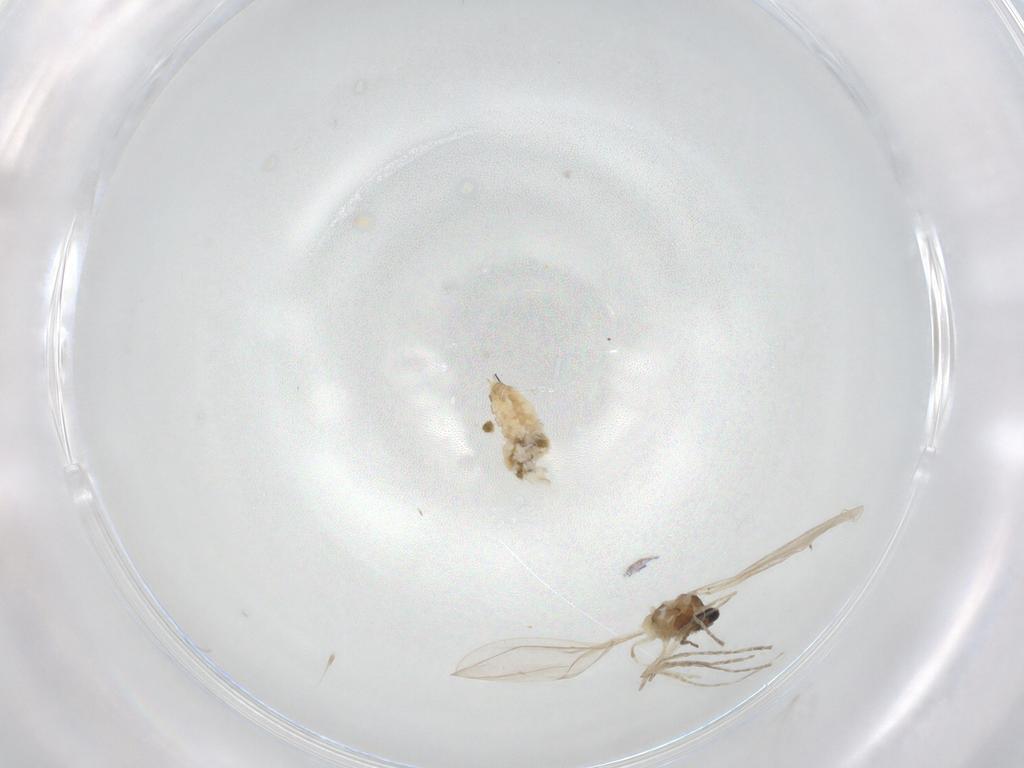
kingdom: Animalia
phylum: Arthropoda
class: Insecta
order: Diptera
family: Cecidomyiidae
